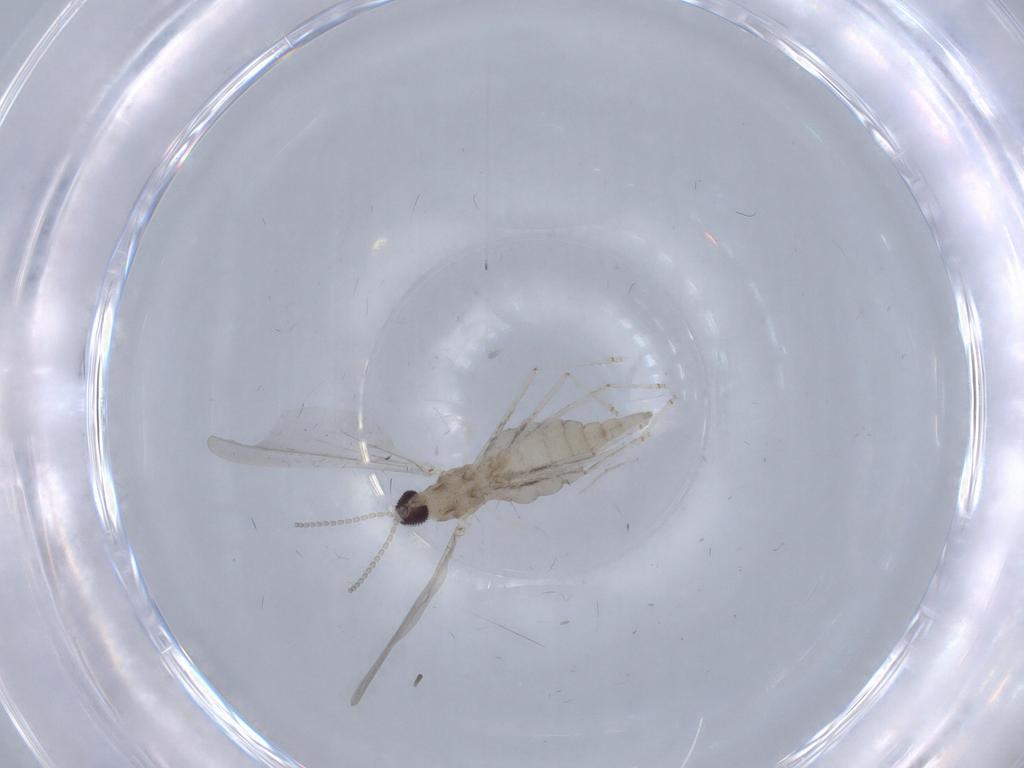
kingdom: Animalia
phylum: Arthropoda
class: Insecta
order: Diptera
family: Cecidomyiidae
